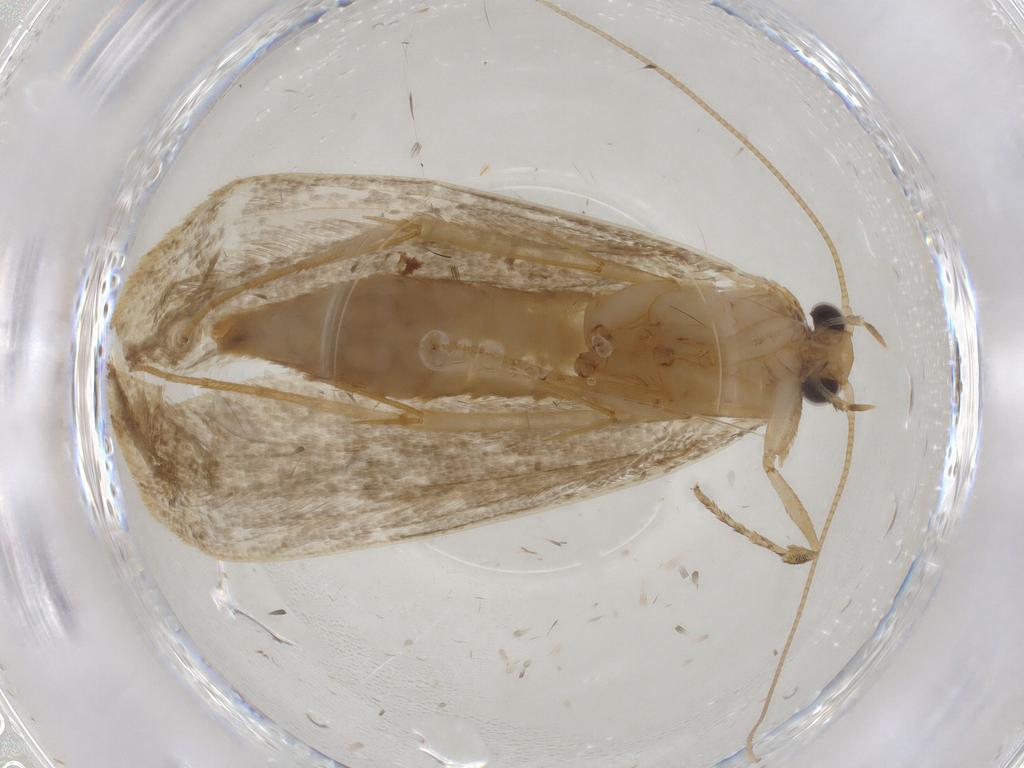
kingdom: Animalia
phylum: Arthropoda
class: Insecta
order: Lepidoptera
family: Tineidae
